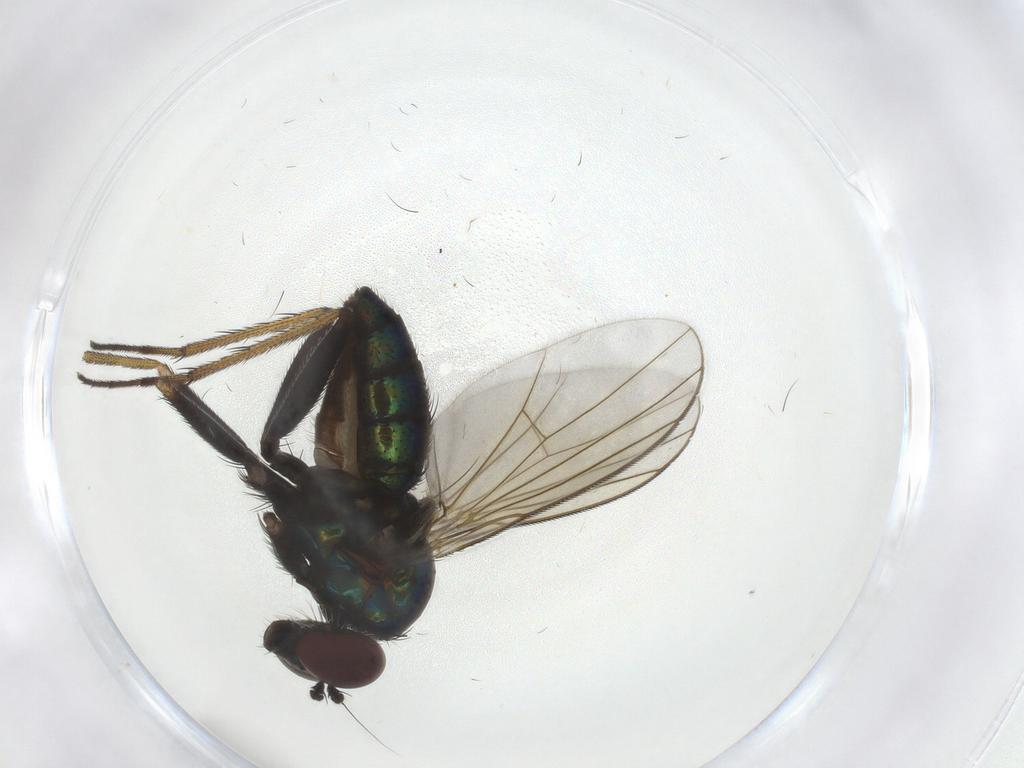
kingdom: Animalia
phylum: Arthropoda
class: Insecta
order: Diptera
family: Dolichopodidae
